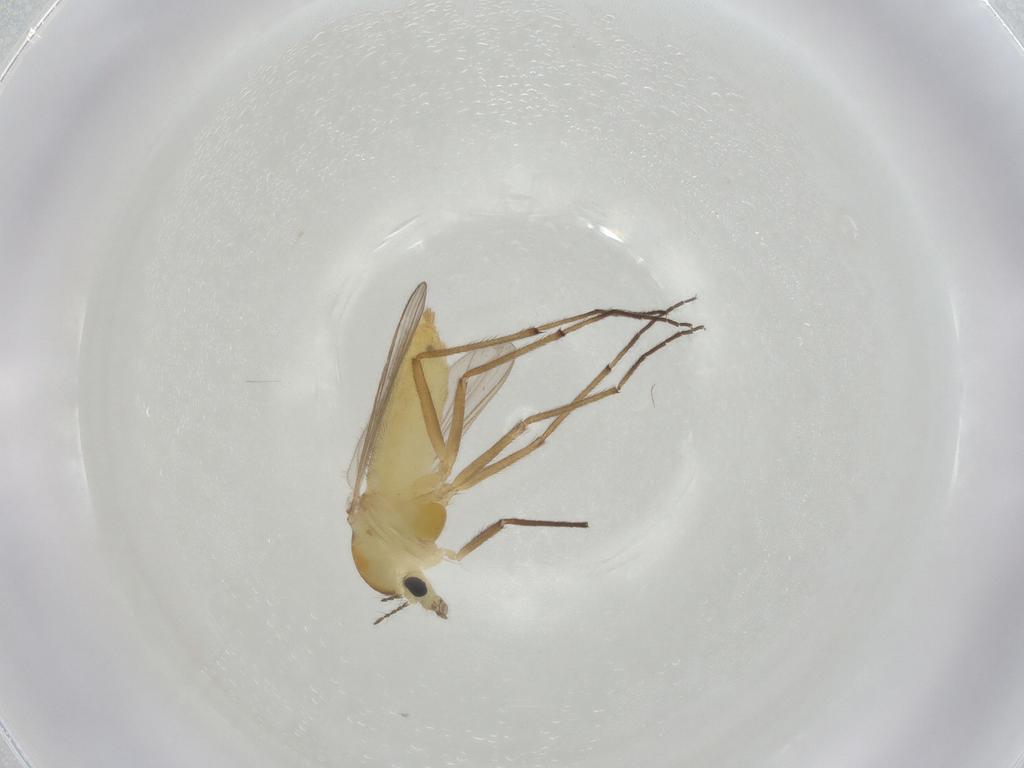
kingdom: Animalia
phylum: Arthropoda
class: Insecta
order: Diptera
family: Chironomidae
